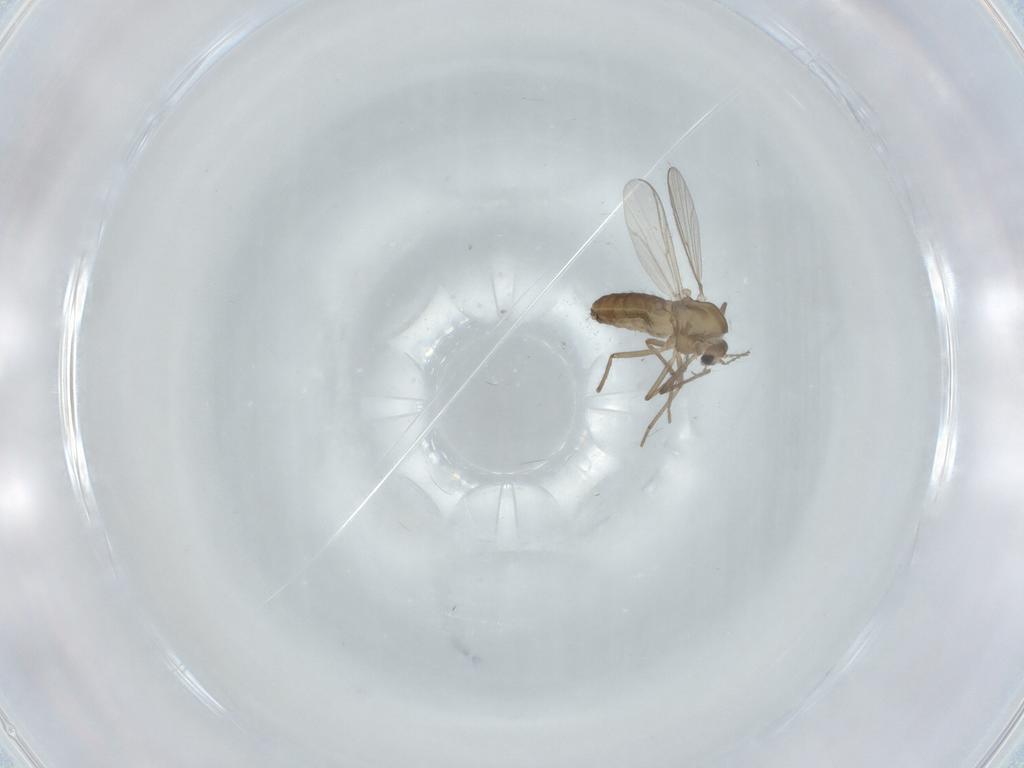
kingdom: Animalia
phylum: Arthropoda
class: Insecta
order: Diptera
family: Chironomidae
